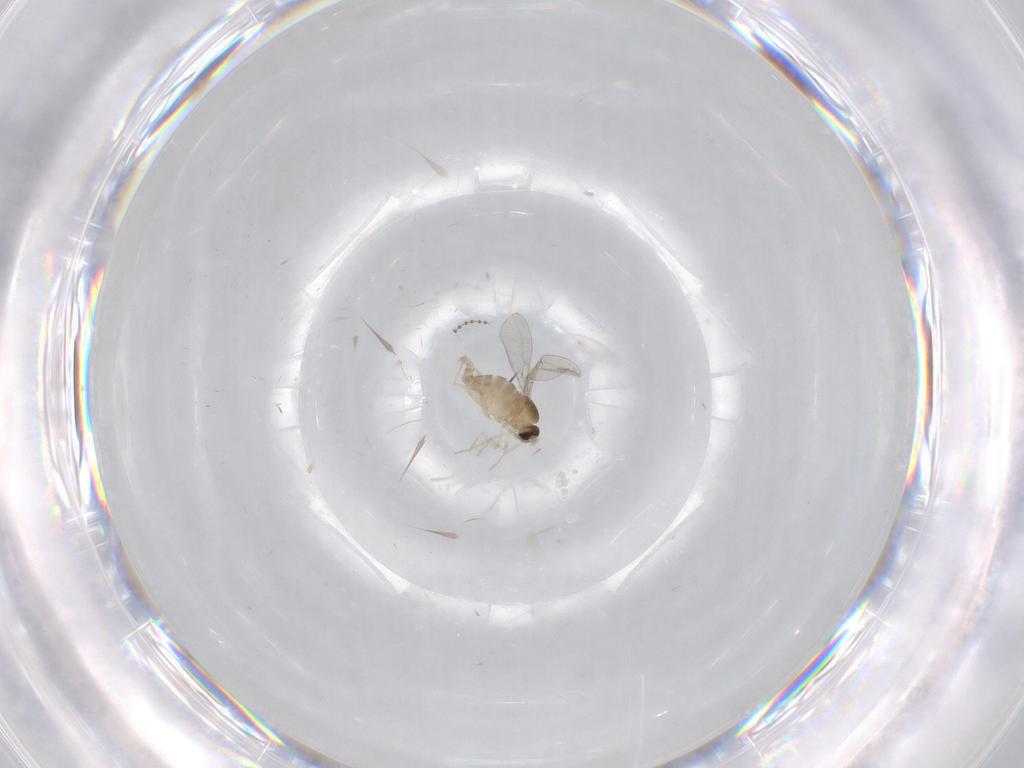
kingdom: Animalia
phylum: Arthropoda
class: Insecta
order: Diptera
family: Cecidomyiidae
